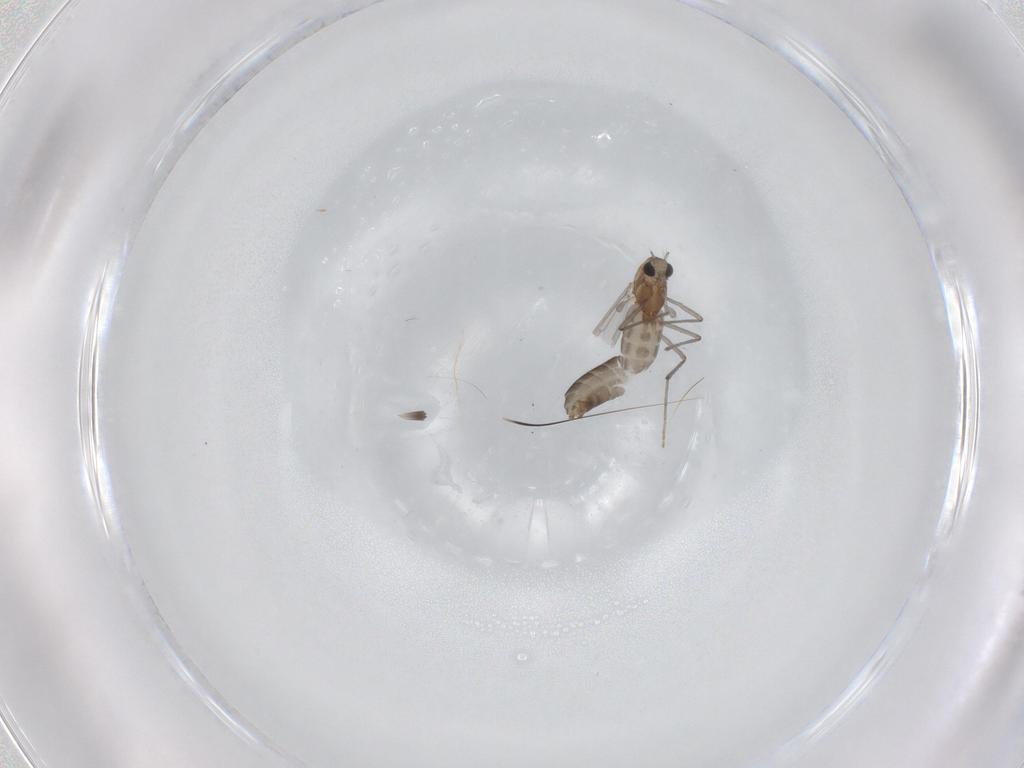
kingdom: Animalia
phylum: Arthropoda
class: Insecta
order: Diptera
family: Chironomidae
